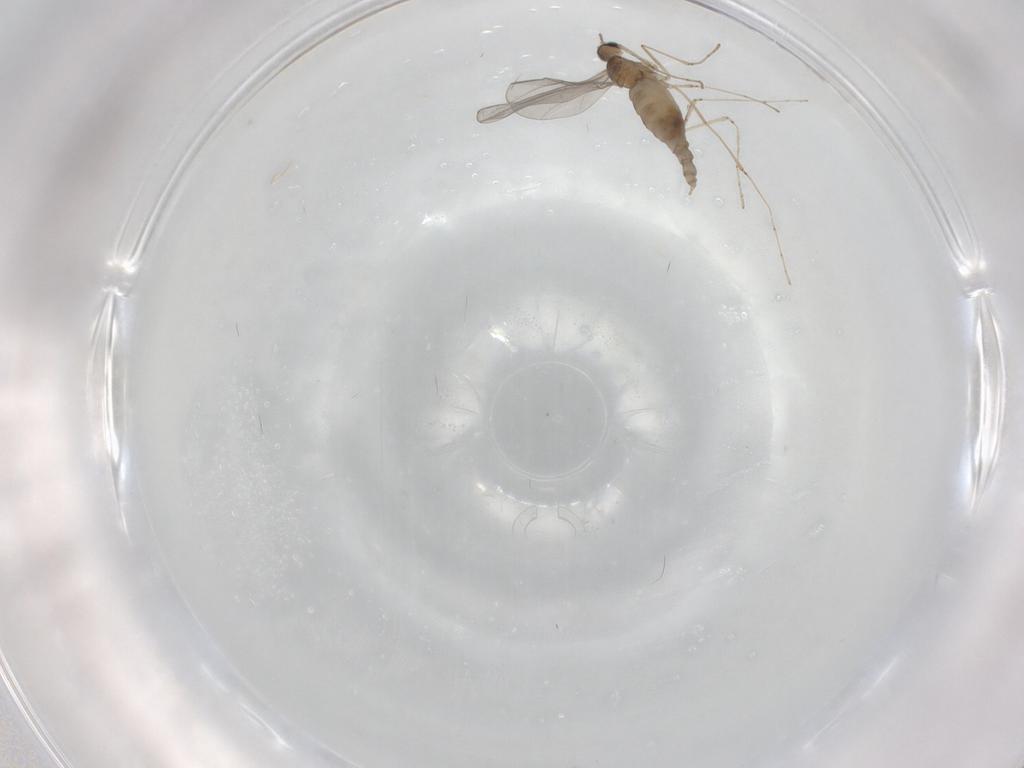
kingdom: Animalia
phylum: Arthropoda
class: Insecta
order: Diptera
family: Cecidomyiidae
